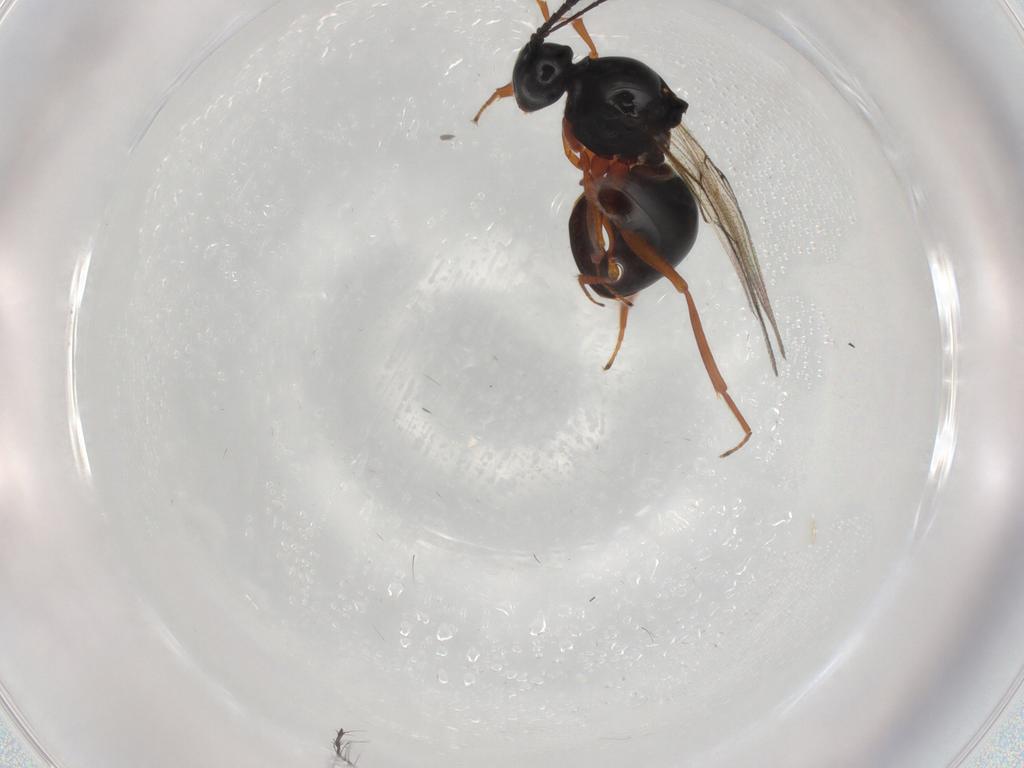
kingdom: Animalia
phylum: Arthropoda
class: Insecta
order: Hymenoptera
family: Figitidae
